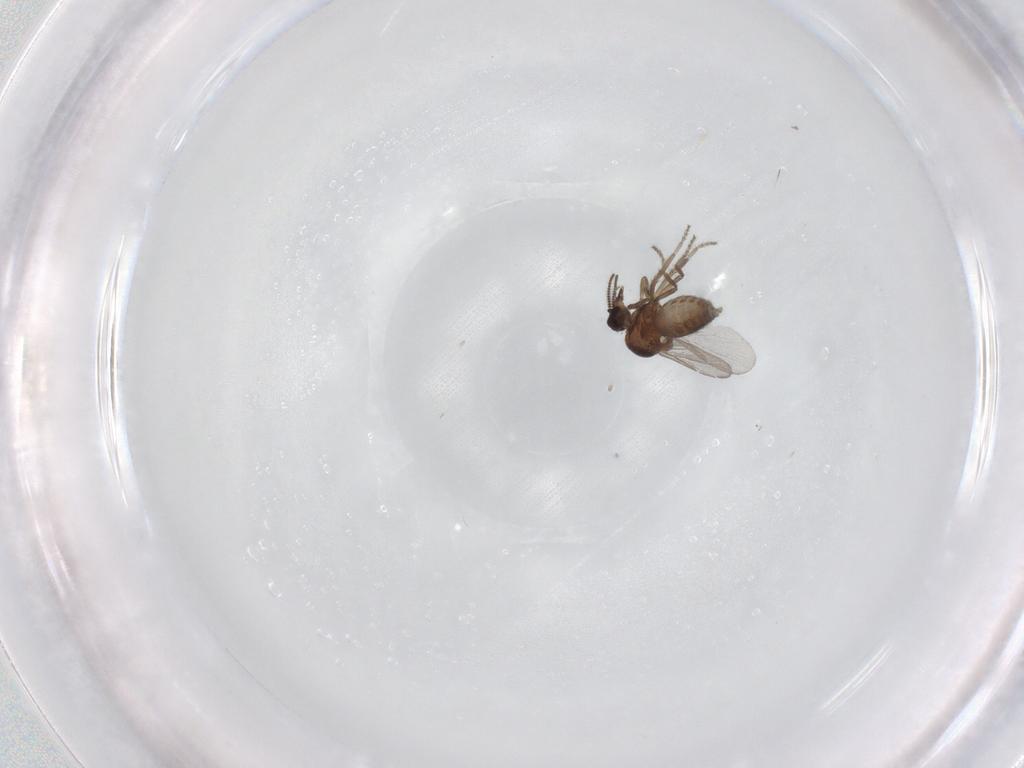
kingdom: Animalia
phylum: Arthropoda
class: Insecta
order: Diptera
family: Ceratopogonidae
